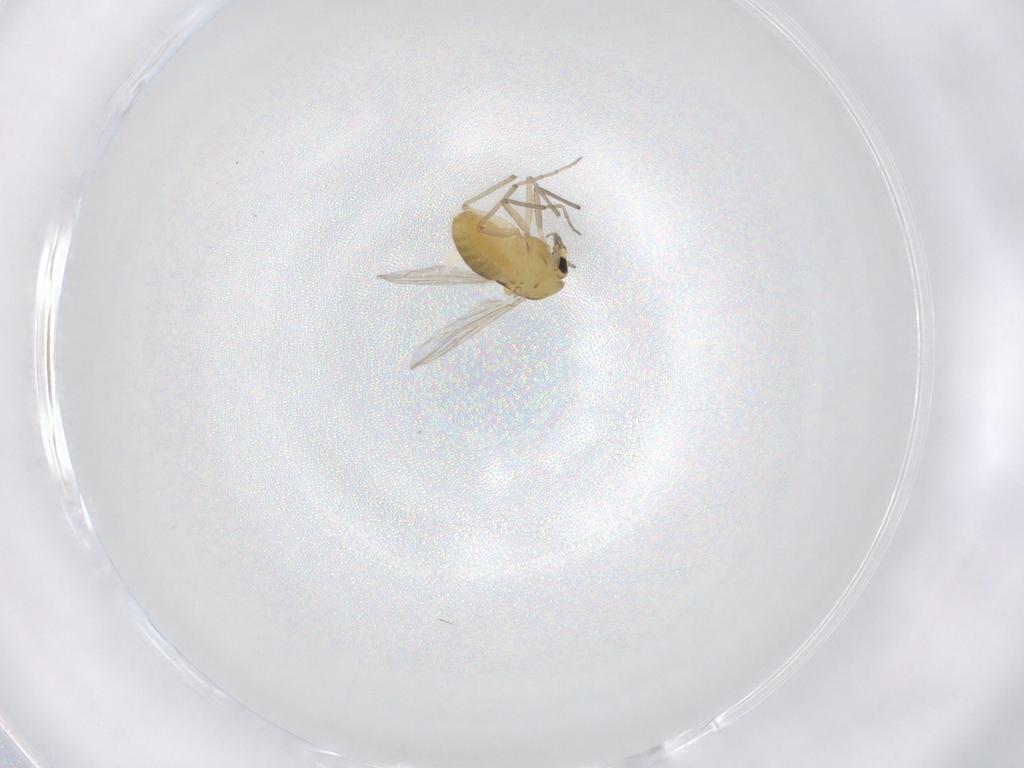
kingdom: Animalia
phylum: Arthropoda
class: Insecta
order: Diptera
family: Chironomidae
